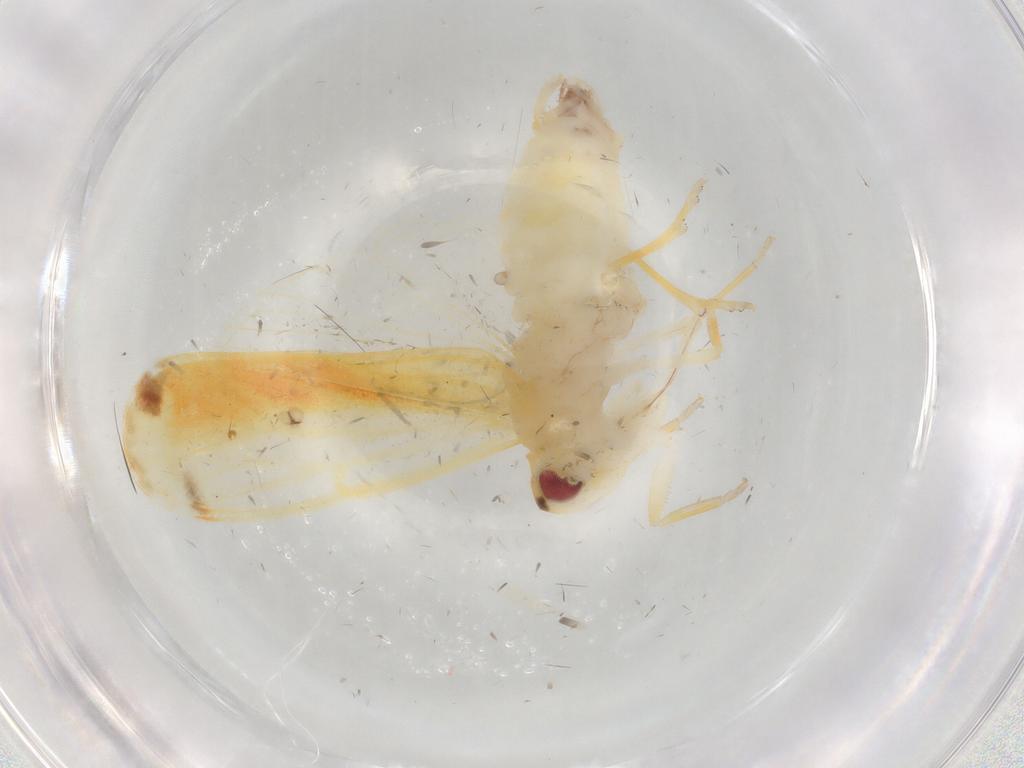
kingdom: Animalia
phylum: Arthropoda
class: Insecta
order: Hemiptera
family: Derbidae
